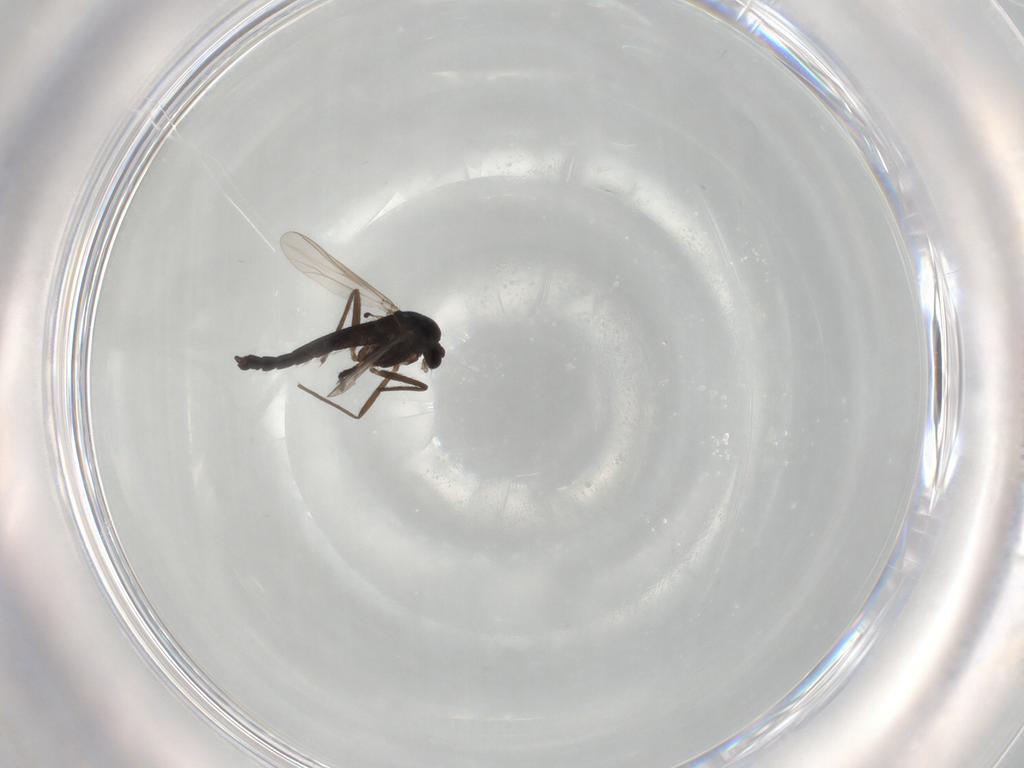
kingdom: Animalia
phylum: Arthropoda
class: Insecta
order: Diptera
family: Chironomidae
